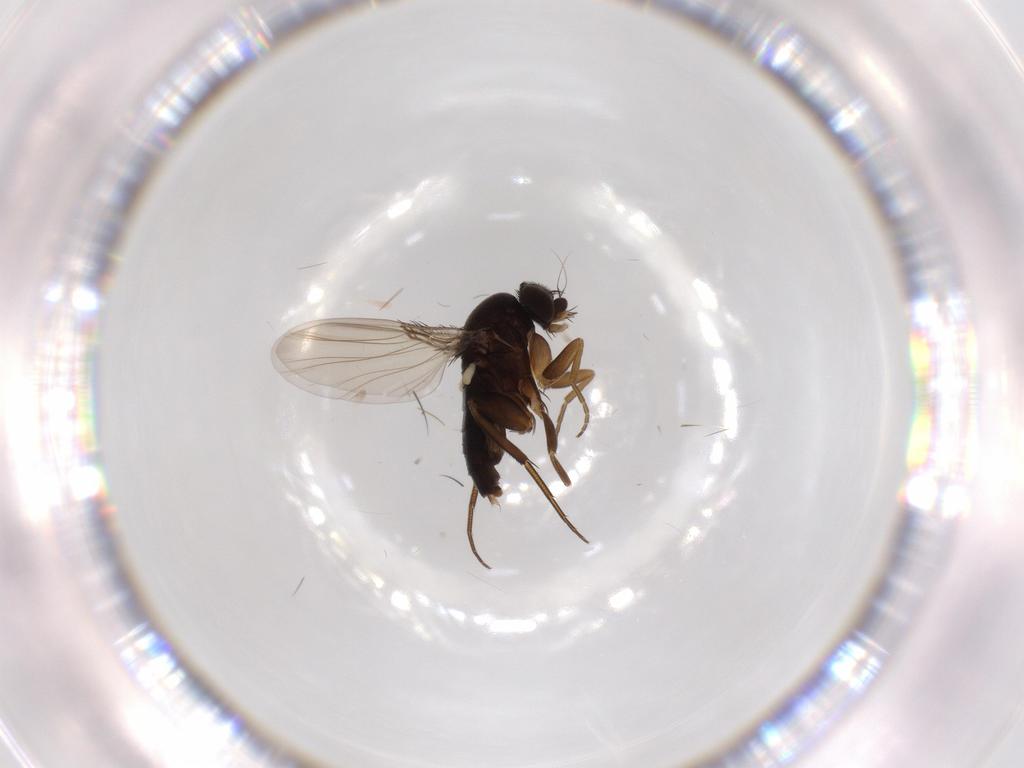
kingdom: Animalia
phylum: Arthropoda
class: Insecta
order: Diptera
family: Phoridae
